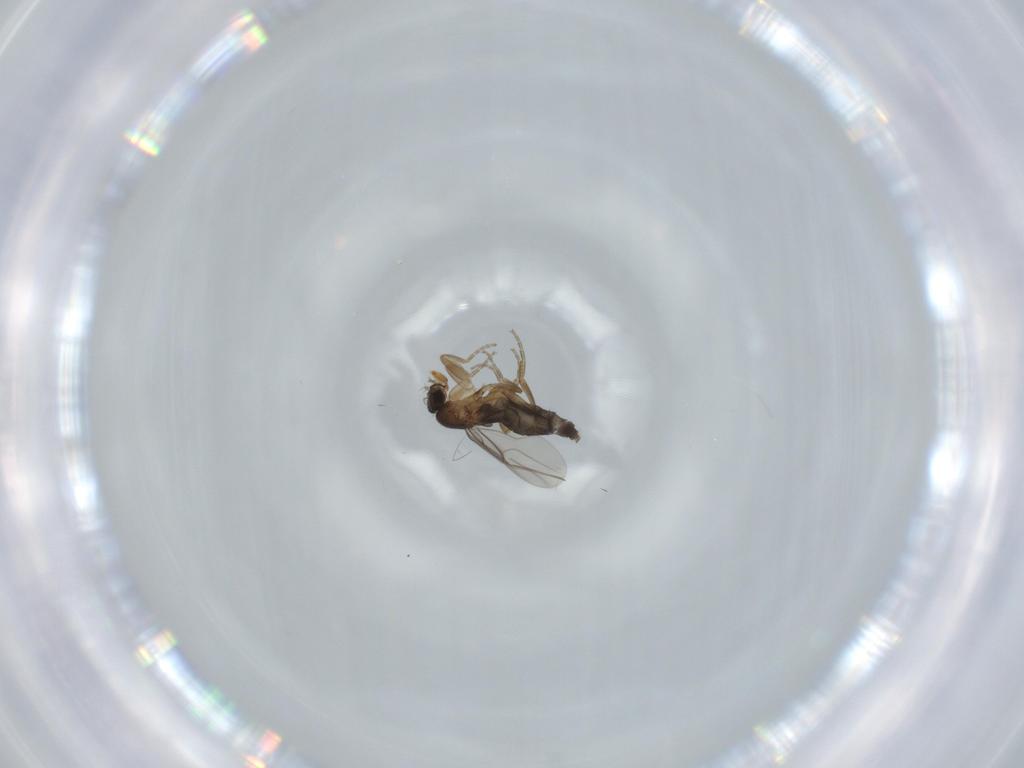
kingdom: Animalia
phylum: Arthropoda
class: Insecta
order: Diptera
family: Phoridae
